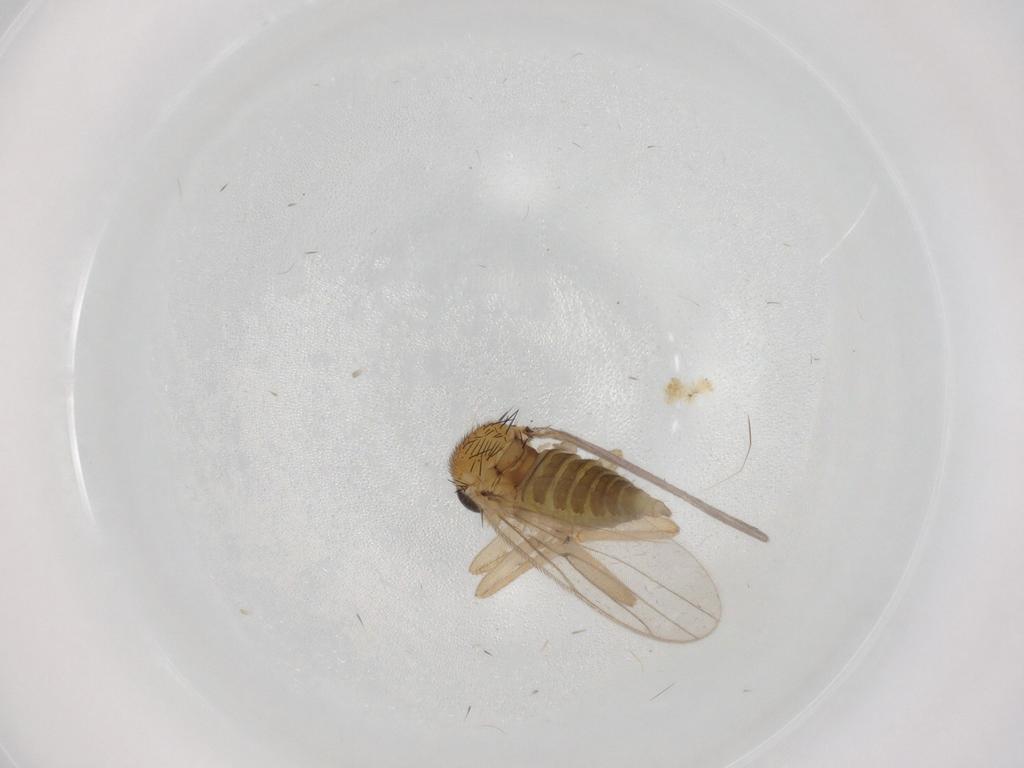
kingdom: Animalia
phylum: Arthropoda
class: Insecta
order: Diptera
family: Hybotidae
